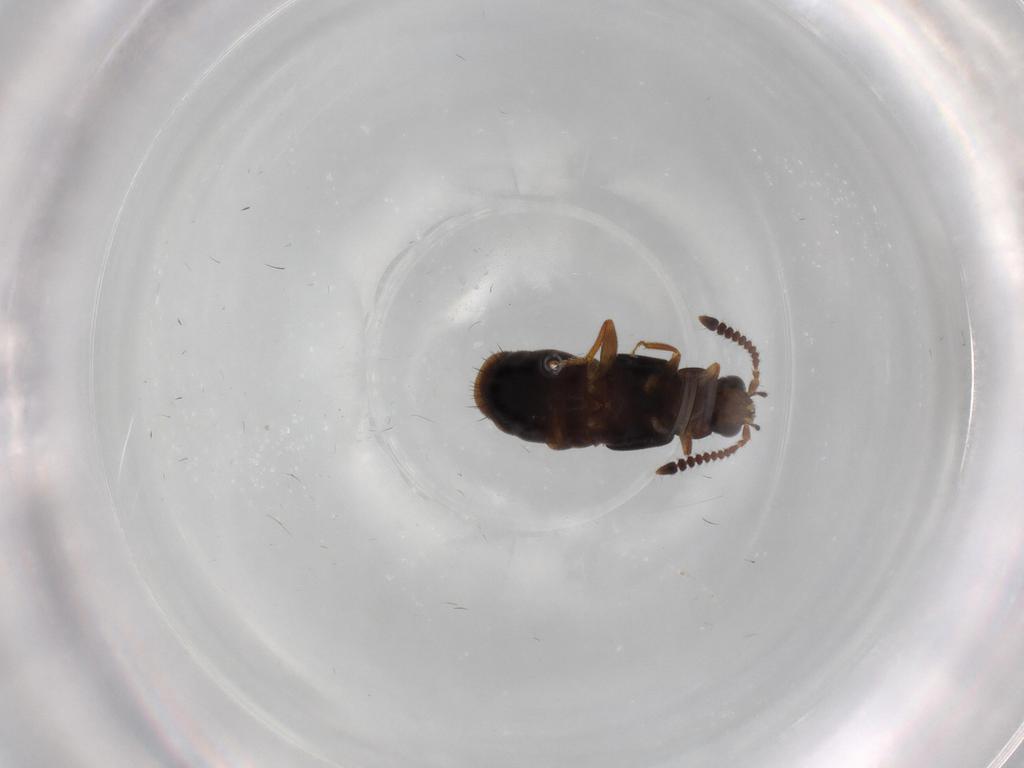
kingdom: Animalia
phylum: Arthropoda
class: Insecta
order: Coleoptera
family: Staphylinidae
